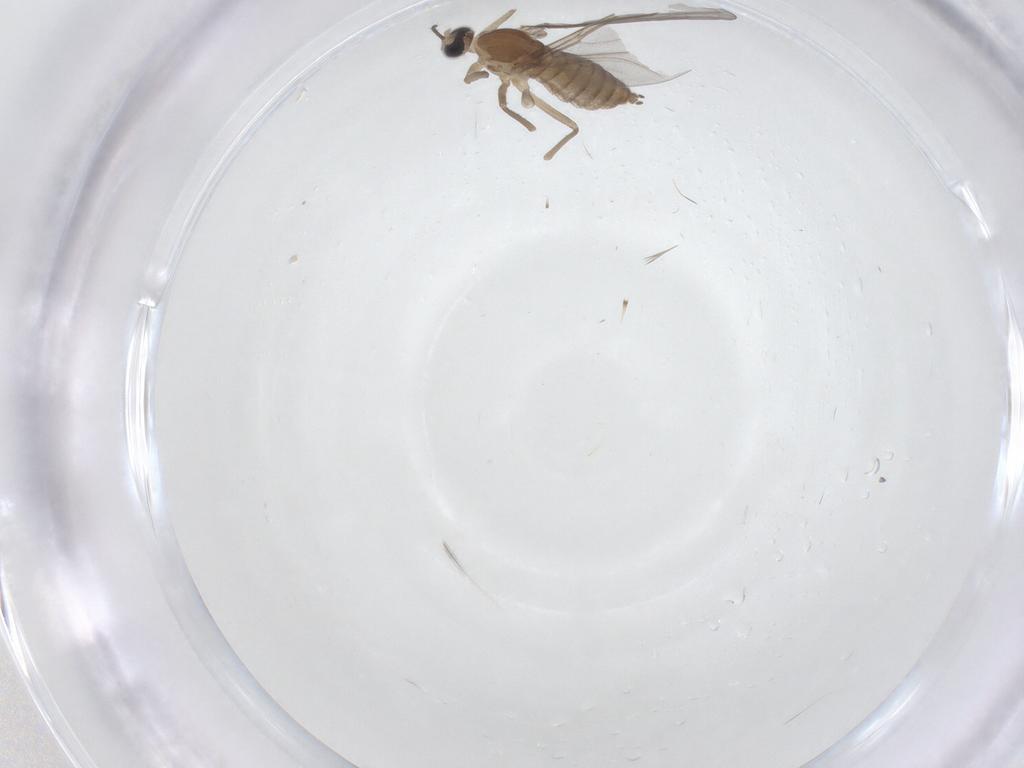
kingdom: Animalia
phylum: Arthropoda
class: Insecta
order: Diptera
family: Cecidomyiidae
